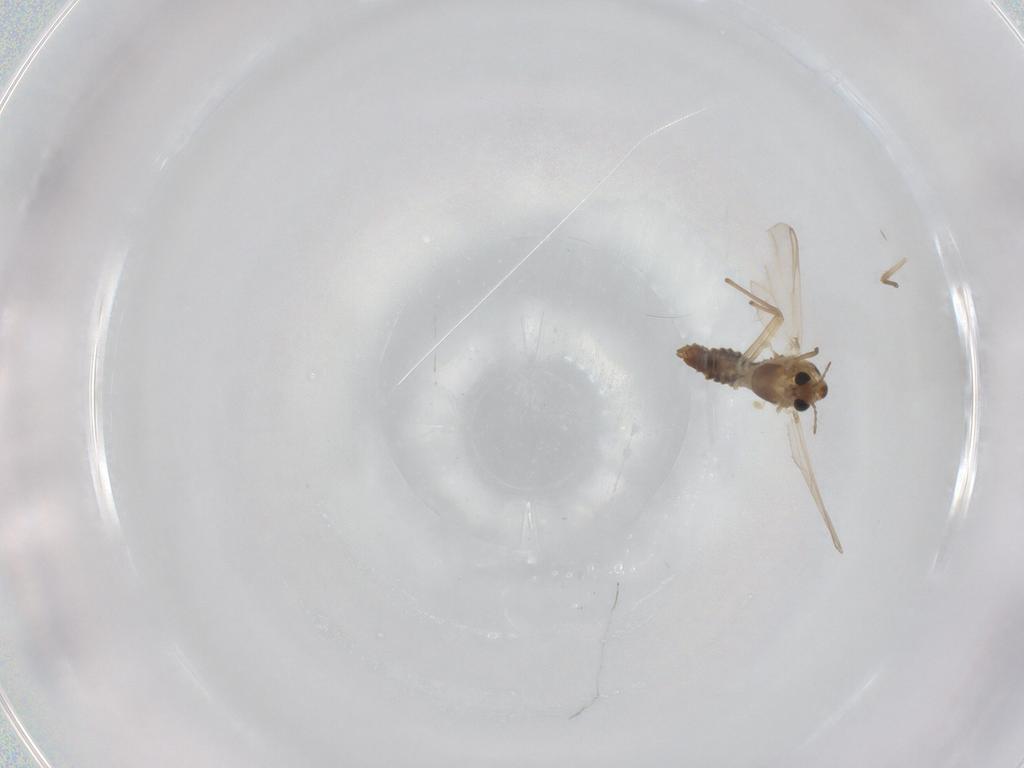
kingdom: Animalia
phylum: Arthropoda
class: Insecta
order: Diptera
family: Chironomidae
